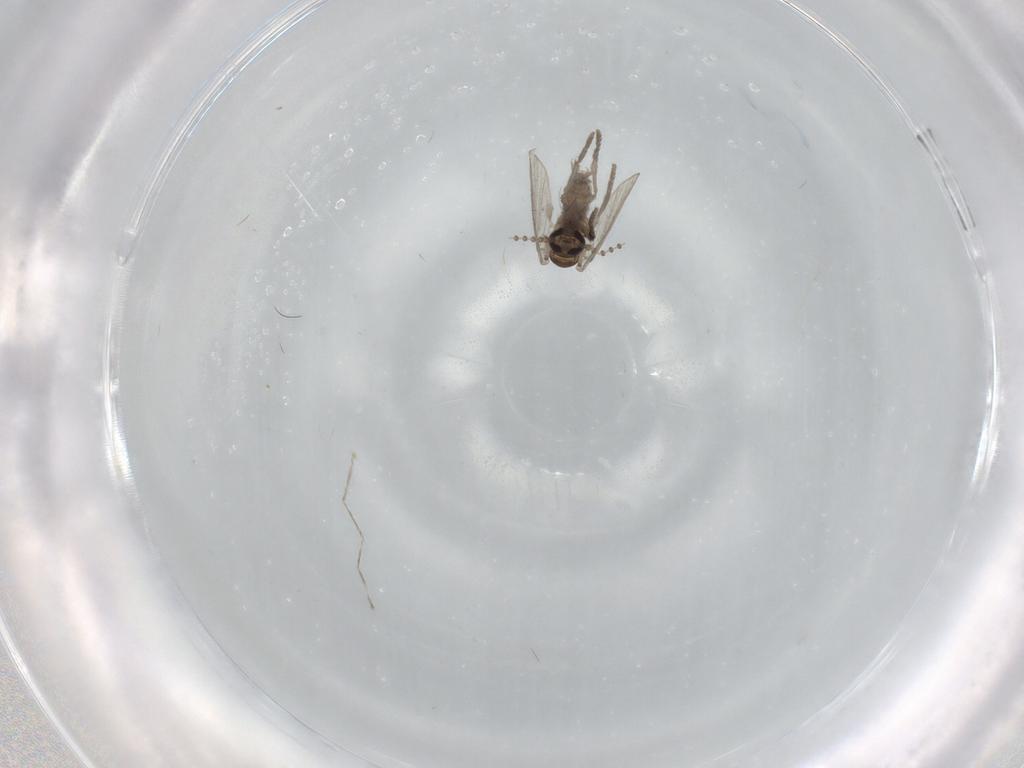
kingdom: Animalia
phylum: Arthropoda
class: Insecta
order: Diptera
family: Psychodidae
